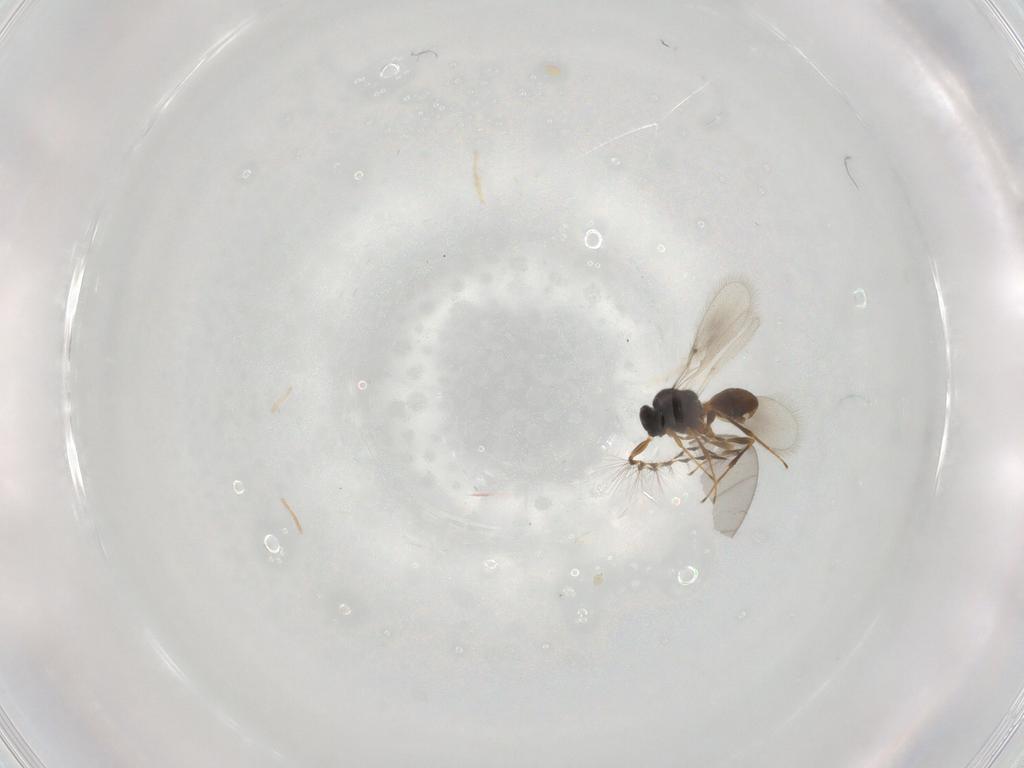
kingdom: Animalia
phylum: Arthropoda
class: Insecta
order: Hymenoptera
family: Platygastridae
